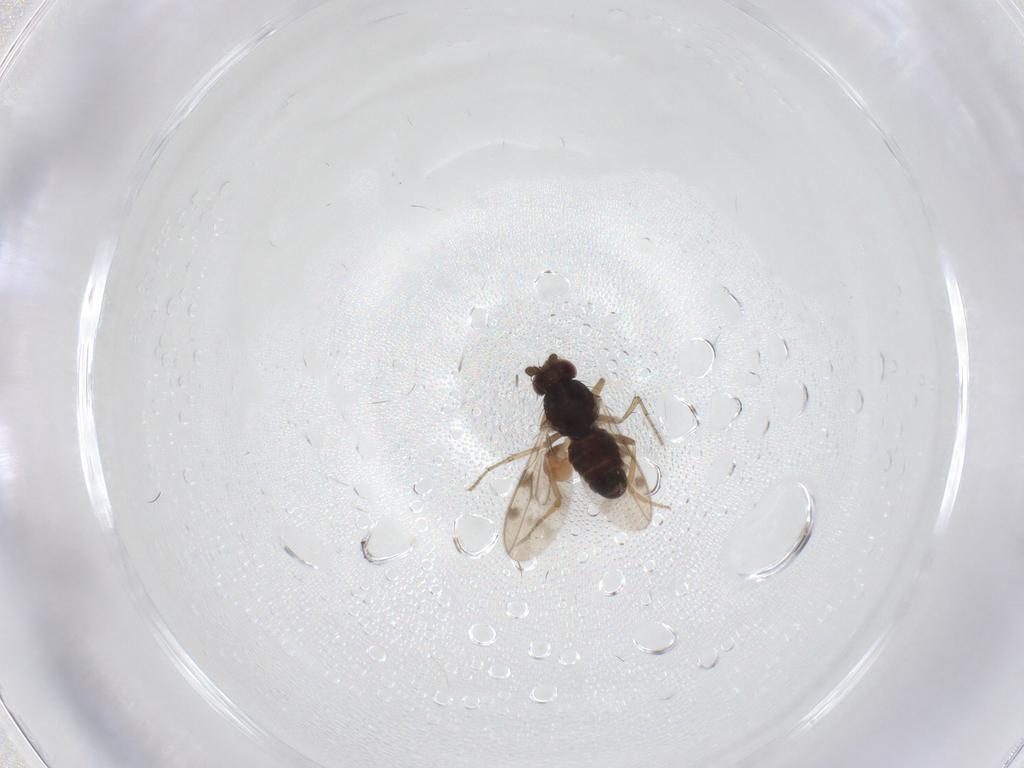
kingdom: Animalia
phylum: Arthropoda
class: Insecta
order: Diptera
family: Sphaeroceridae
